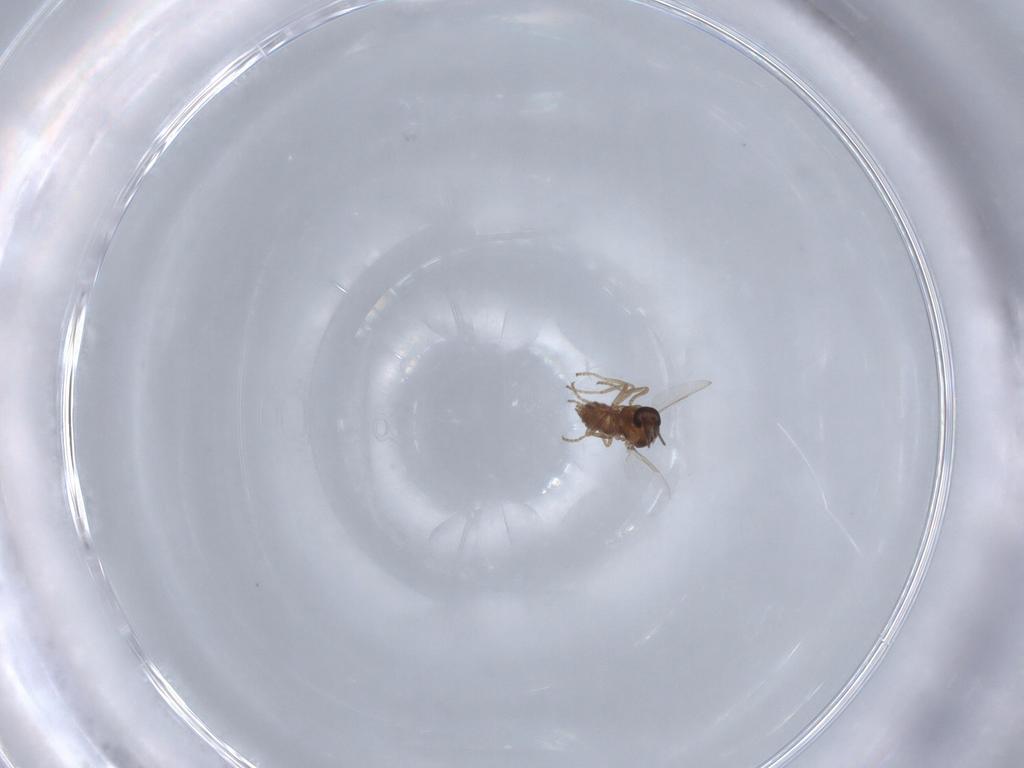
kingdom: Animalia
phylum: Arthropoda
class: Insecta
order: Diptera
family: Ceratopogonidae
